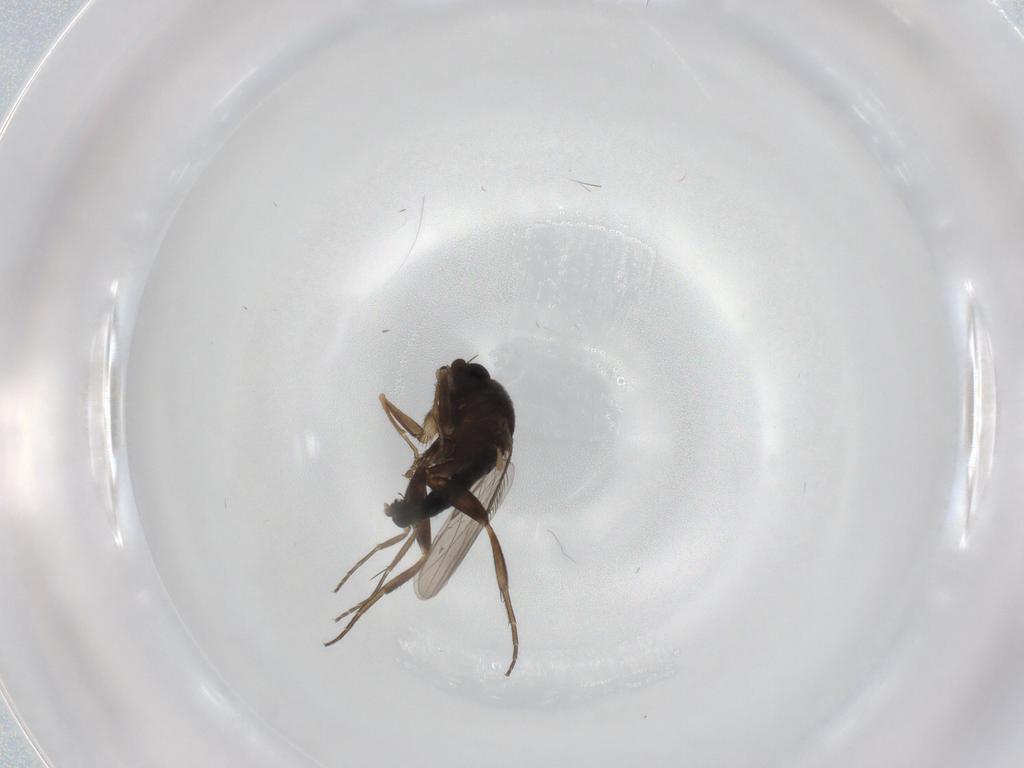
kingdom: Animalia
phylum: Arthropoda
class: Insecta
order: Diptera
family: Phoridae
